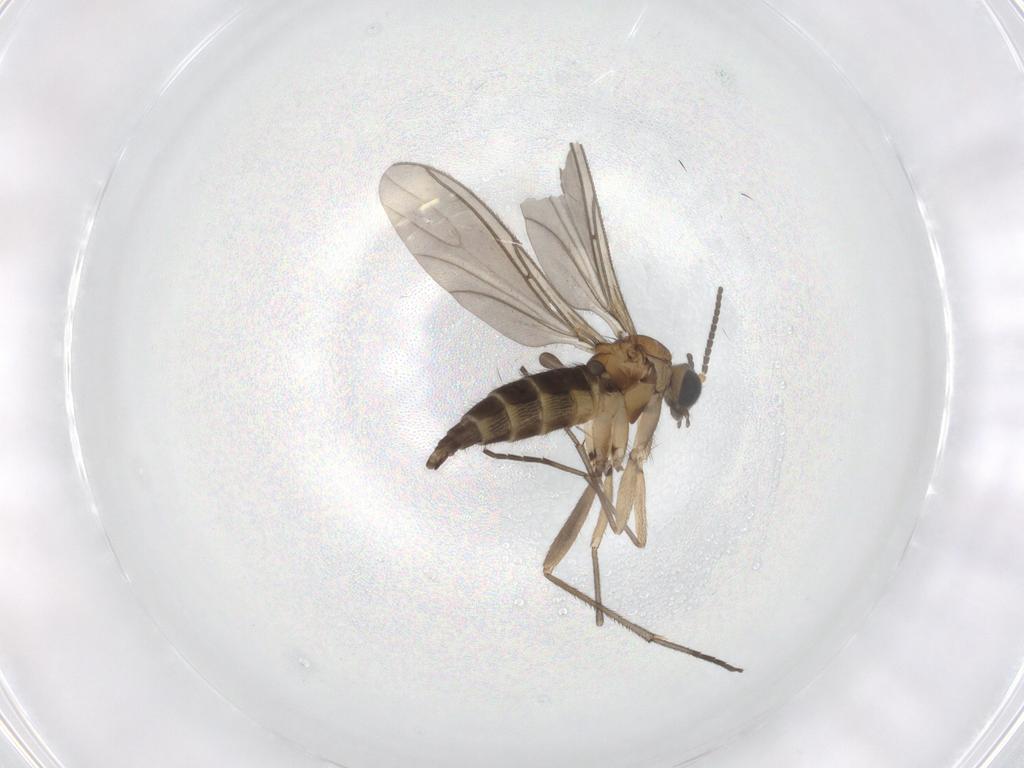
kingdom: Animalia
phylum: Arthropoda
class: Insecta
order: Diptera
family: Sciaridae
